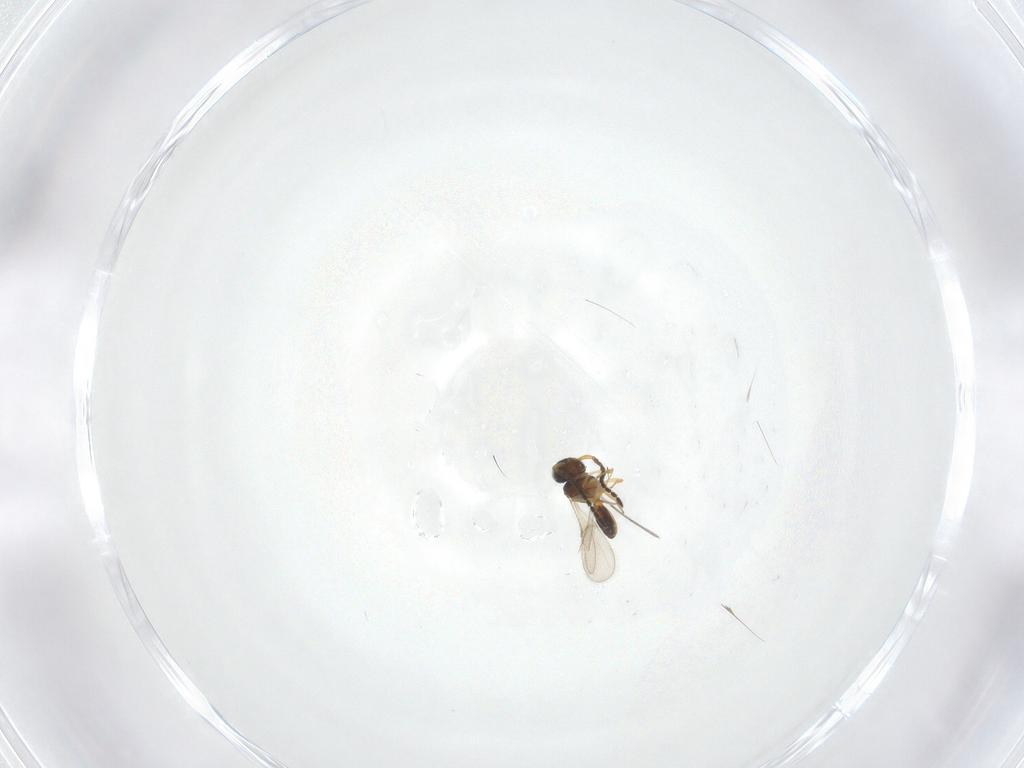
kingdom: Animalia
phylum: Arthropoda
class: Insecta
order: Hymenoptera
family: Scelionidae
